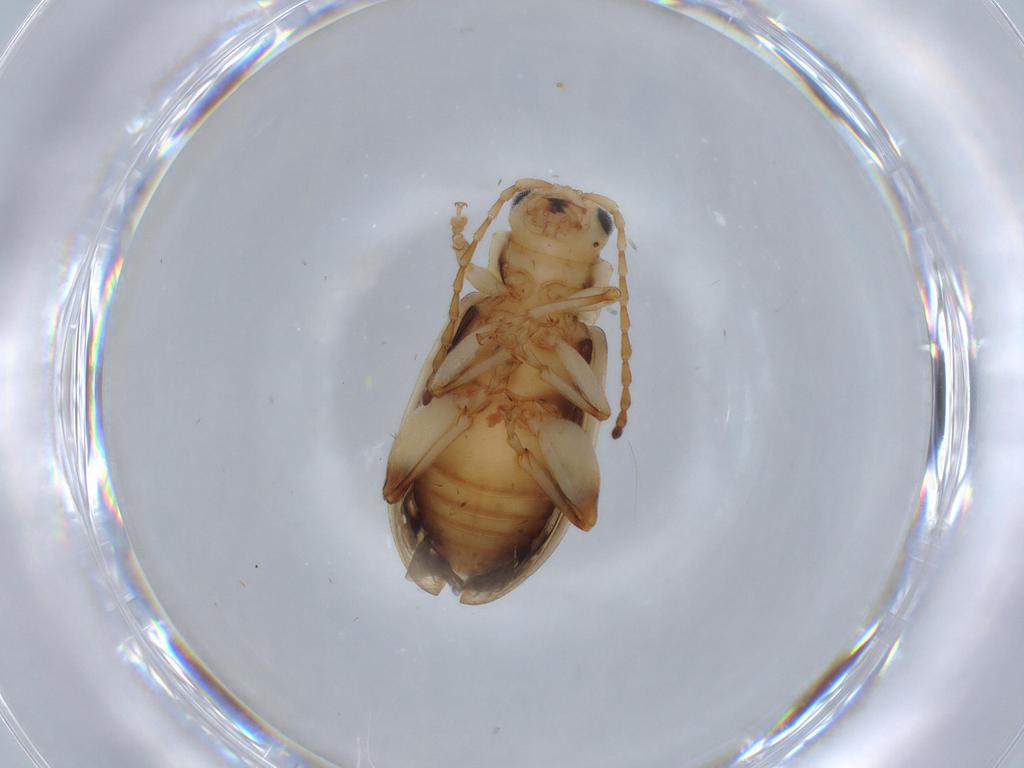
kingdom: Animalia
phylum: Arthropoda
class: Insecta
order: Coleoptera
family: Chrysomelidae
